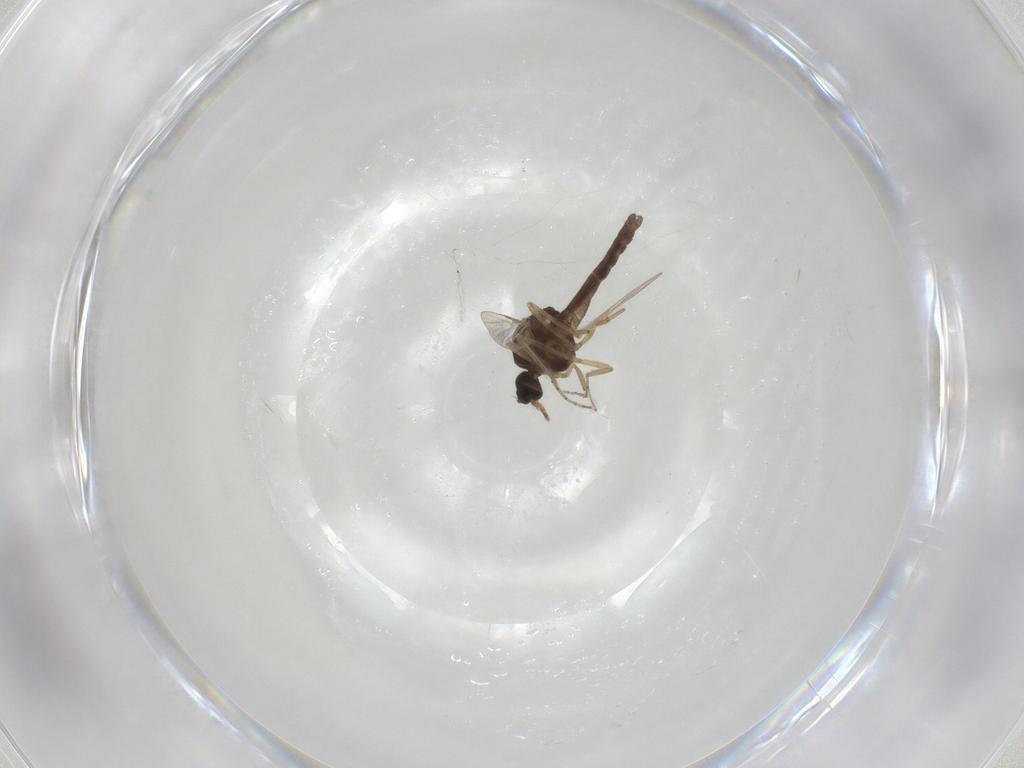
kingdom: Animalia
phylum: Arthropoda
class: Insecta
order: Diptera
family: Ceratopogonidae
